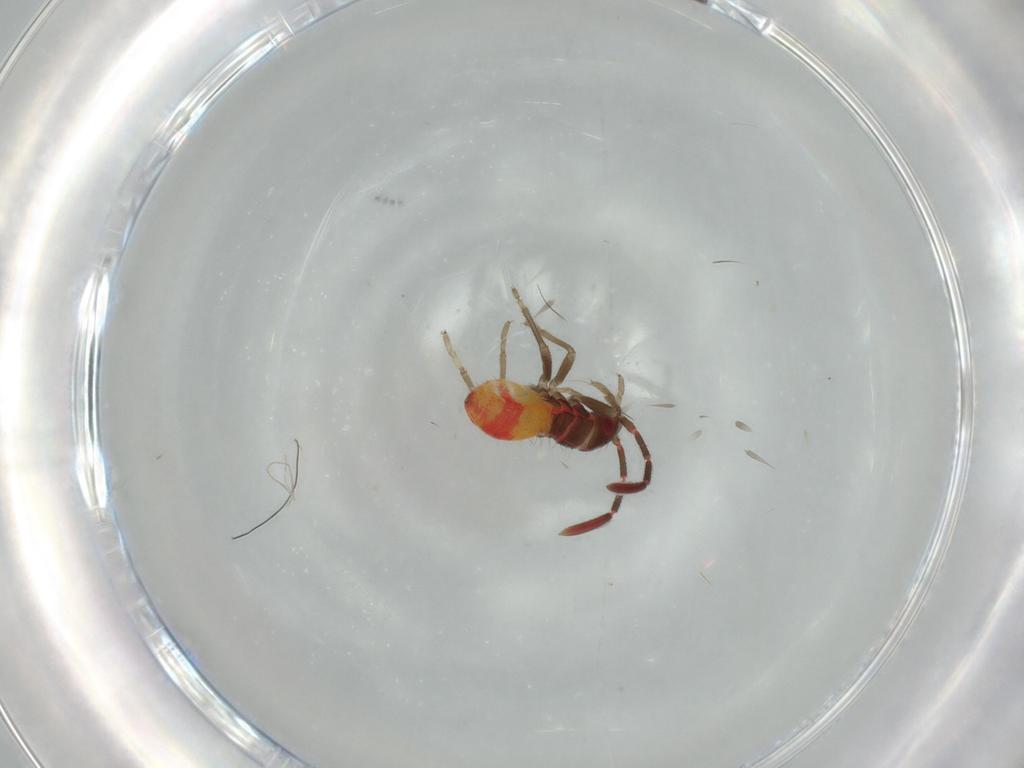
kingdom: Animalia
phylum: Arthropoda
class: Insecta
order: Hemiptera
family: Rhyparochromidae
